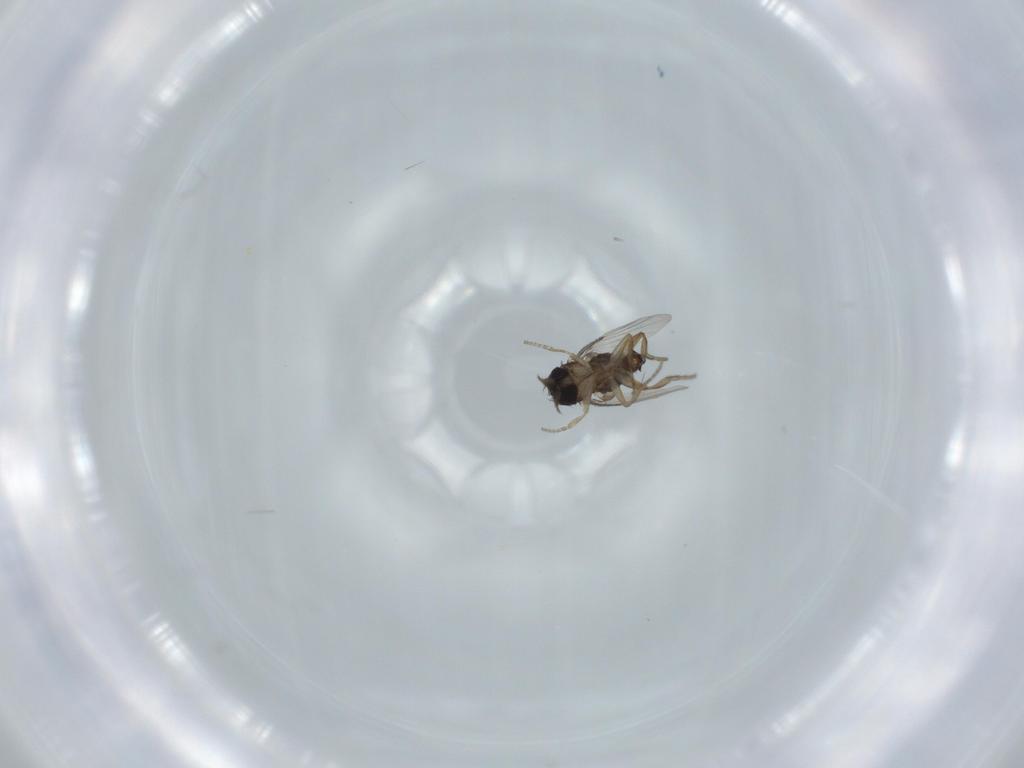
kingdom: Animalia
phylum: Arthropoda
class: Insecta
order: Diptera
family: Phoridae
